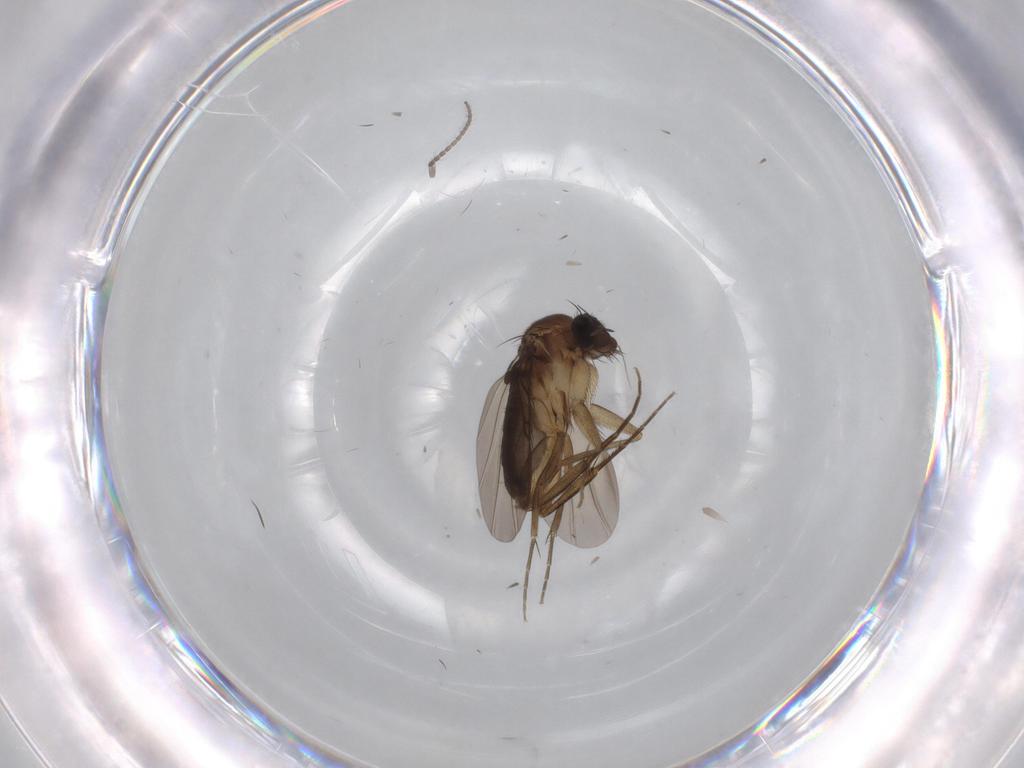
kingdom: Animalia
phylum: Arthropoda
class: Insecta
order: Diptera
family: Phoridae
